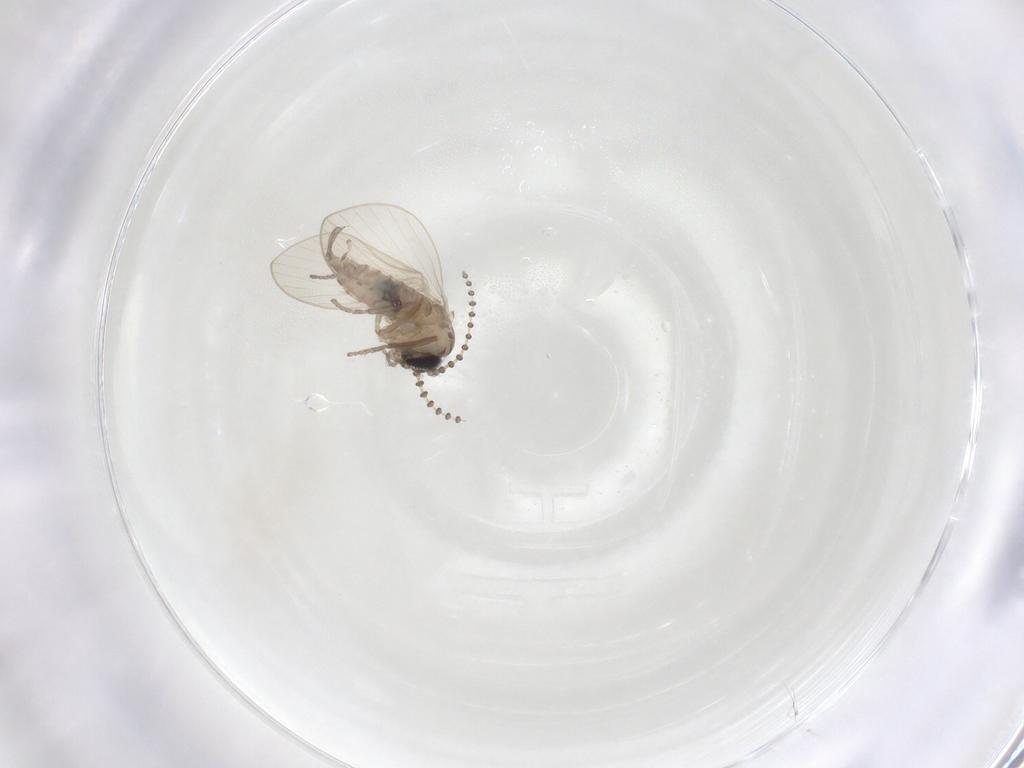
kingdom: Animalia
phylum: Arthropoda
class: Insecta
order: Diptera
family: Psychodidae
